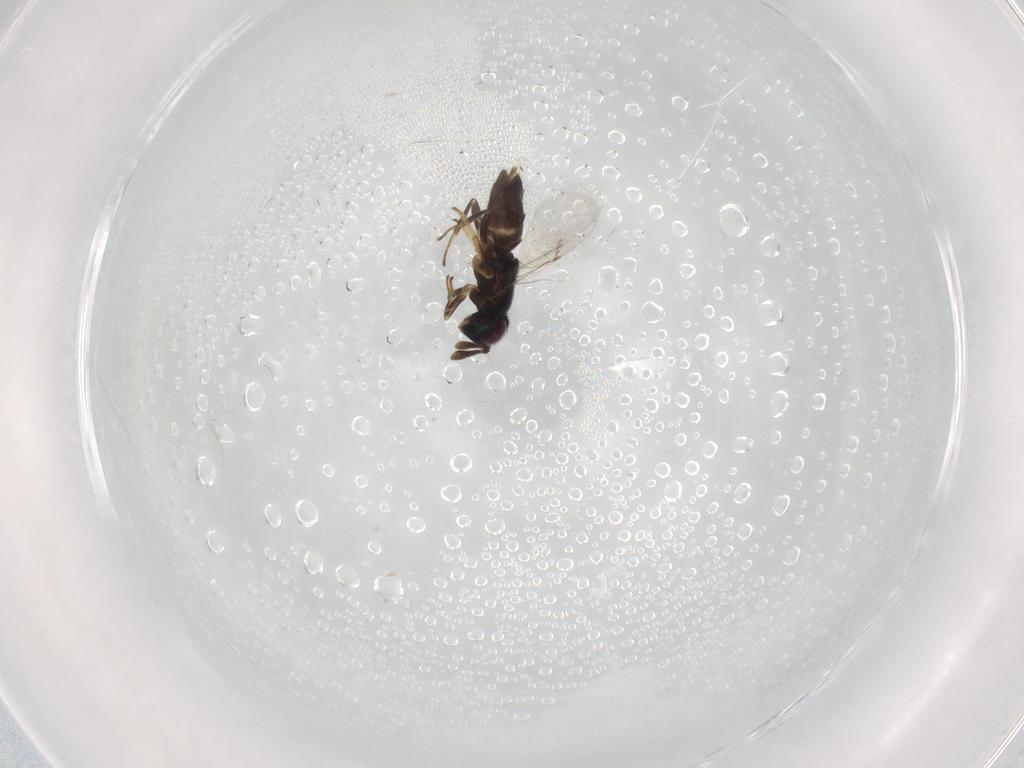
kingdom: Animalia
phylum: Arthropoda
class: Insecta
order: Hymenoptera
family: Encyrtidae
